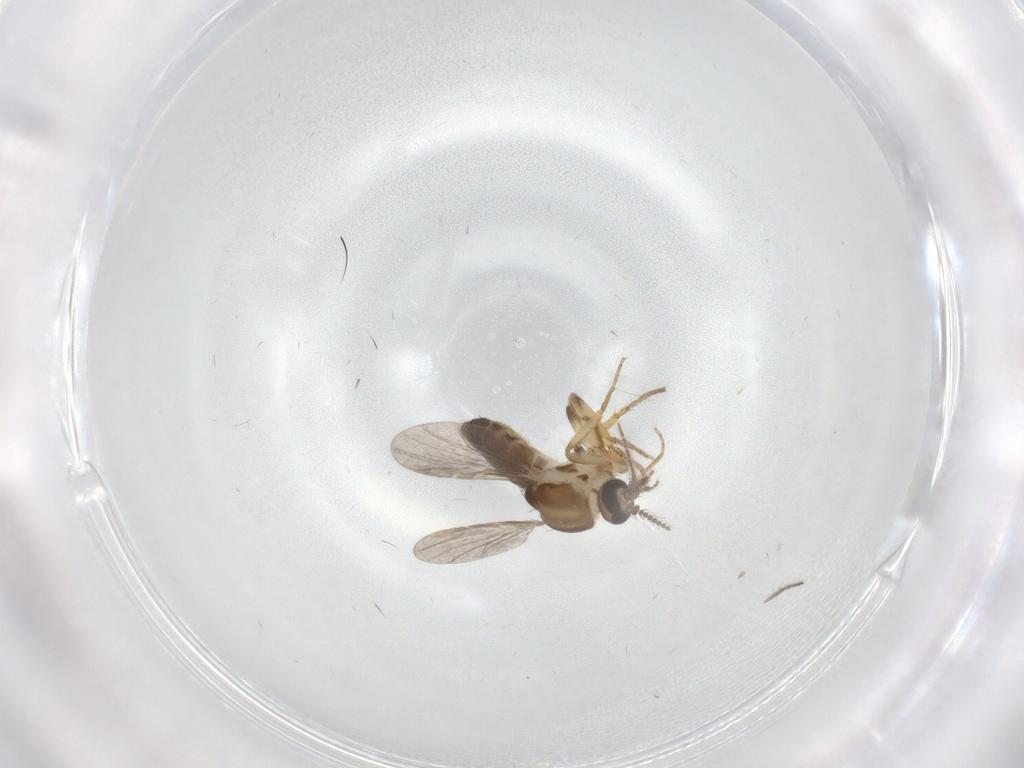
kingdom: Animalia
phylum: Arthropoda
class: Insecta
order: Diptera
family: Ceratopogonidae
